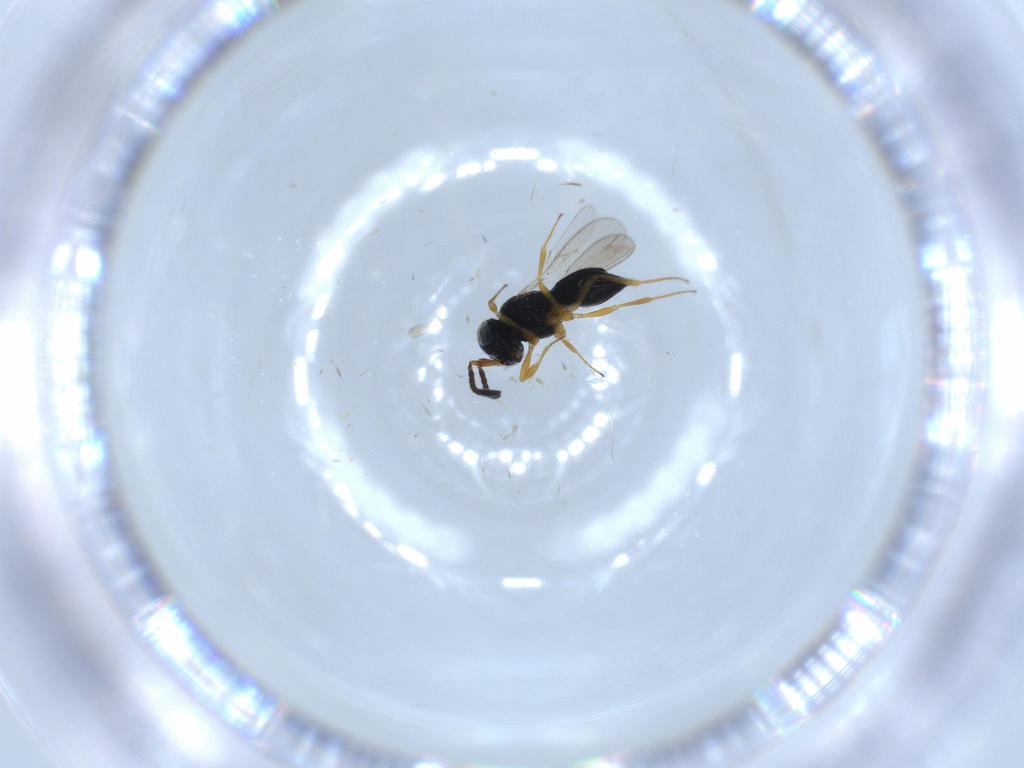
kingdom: Animalia
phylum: Arthropoda
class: Insecta
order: Hymenoptera
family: Scelionidae
